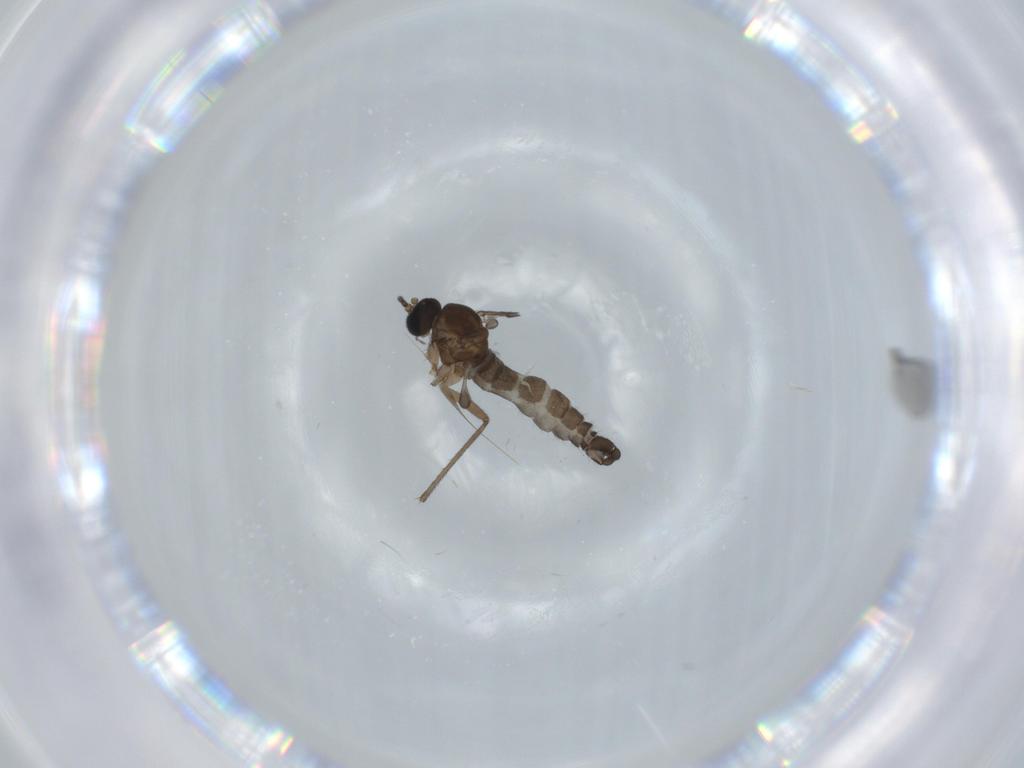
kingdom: Animalia
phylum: Arthropoda
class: Insecta
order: Diptera
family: Sciaridae
